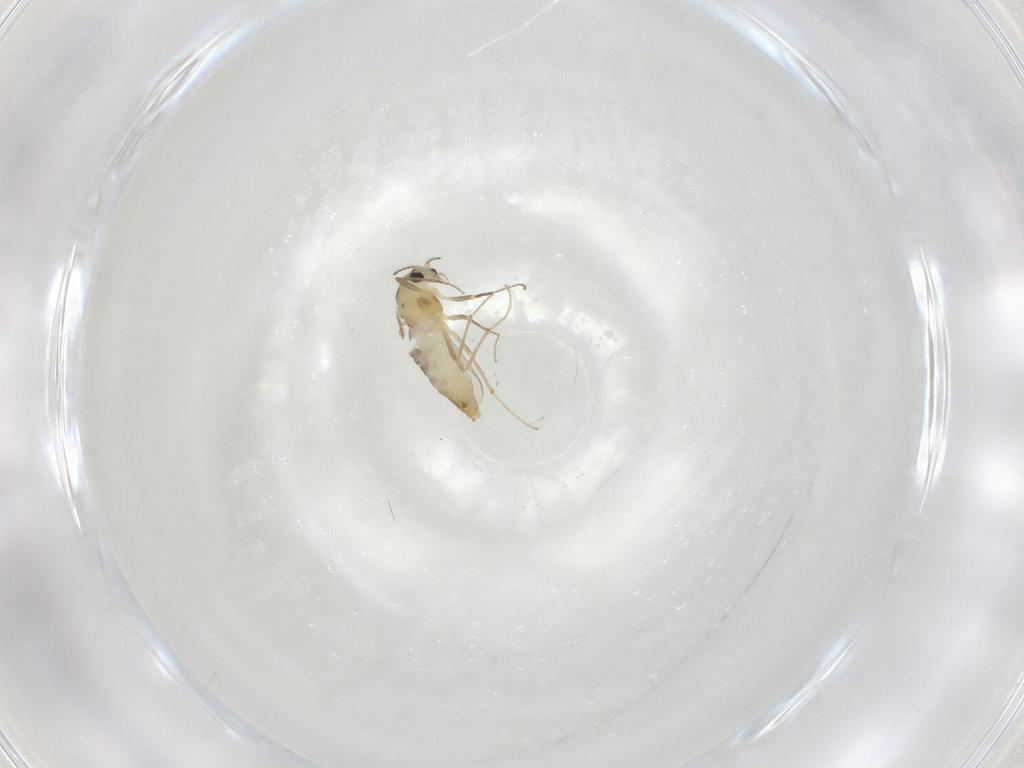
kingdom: Animalia
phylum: Arthropoda
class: Insecta
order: Diptera
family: Chironomidae
